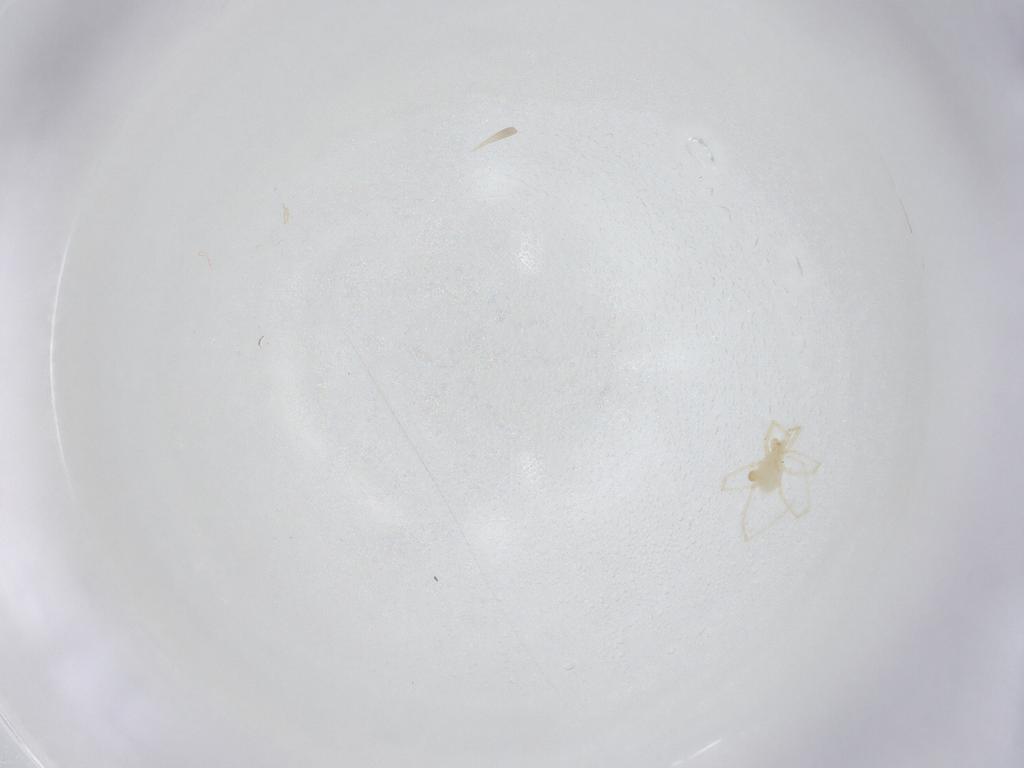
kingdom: Animalia
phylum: Arthropoda
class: Arachnida
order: Trombidiformes
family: Erythraeidae
